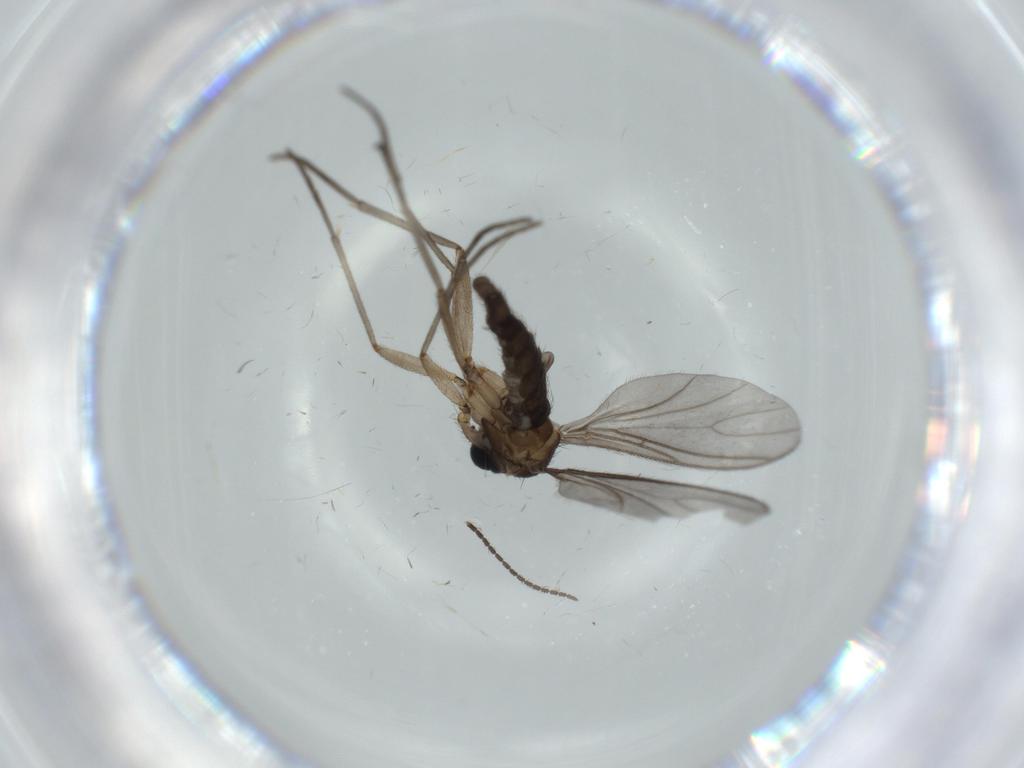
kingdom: Animalia
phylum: Arthropoda
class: Insecta
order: Diptera
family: Sciaridae
